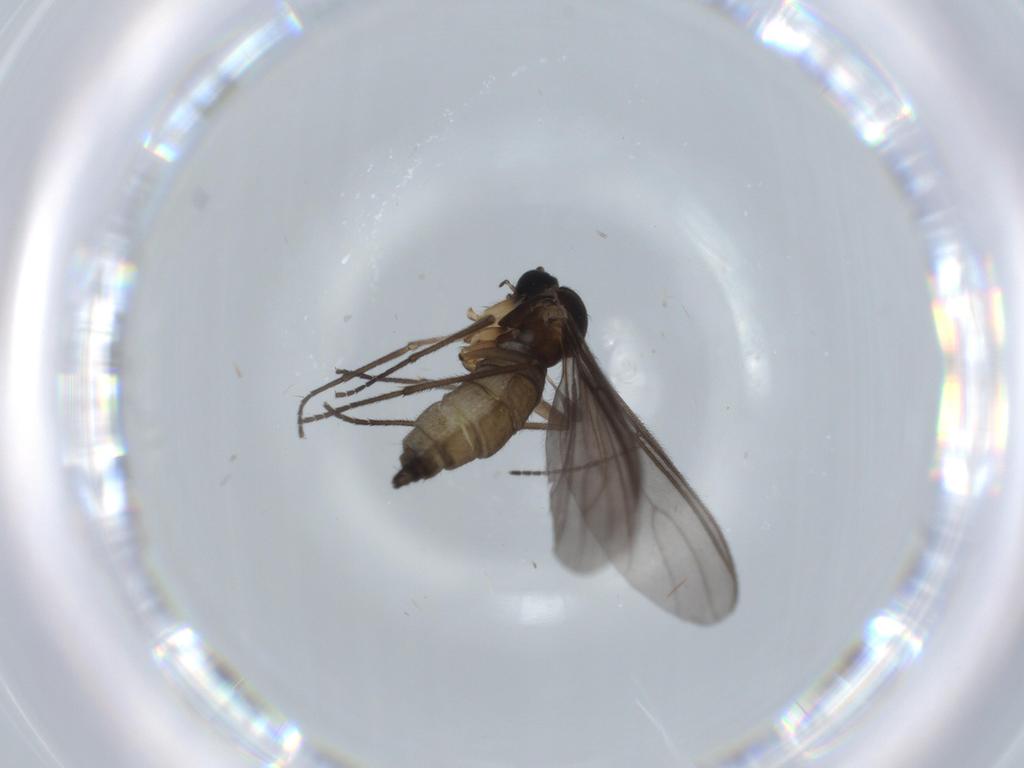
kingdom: Animalia
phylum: Arthropoda
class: Insecta
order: Diptera
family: Sciaridae
